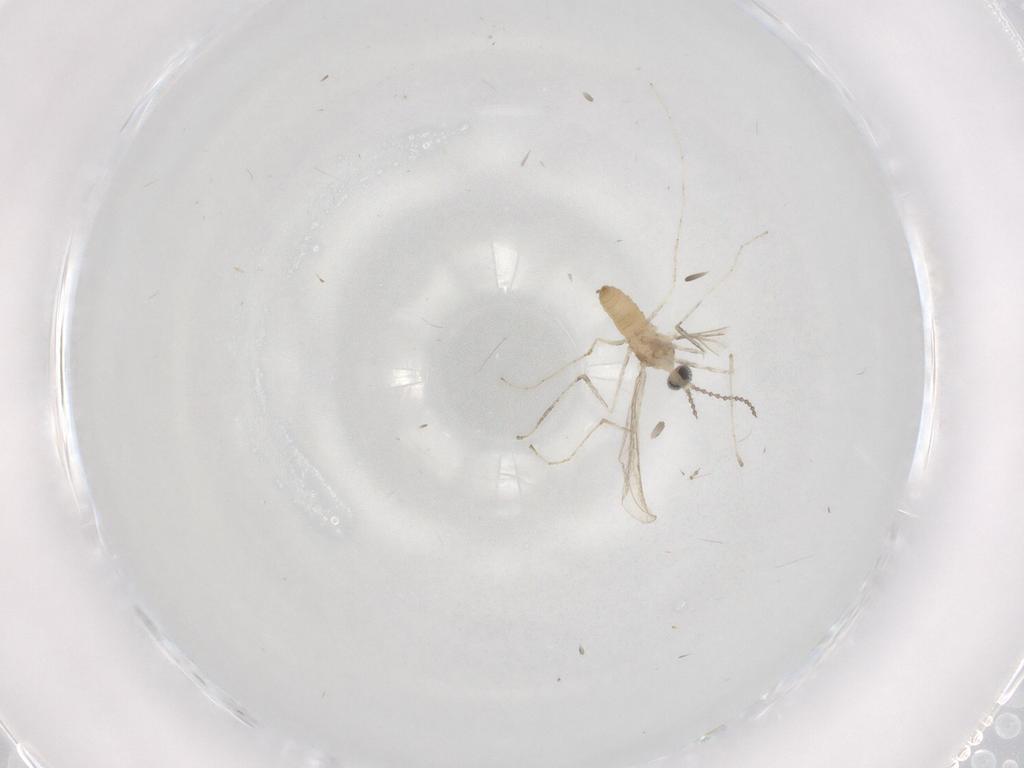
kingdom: Animalia
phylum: Arthropoda
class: Insecta
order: Diptera
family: Cecidomyiidae
